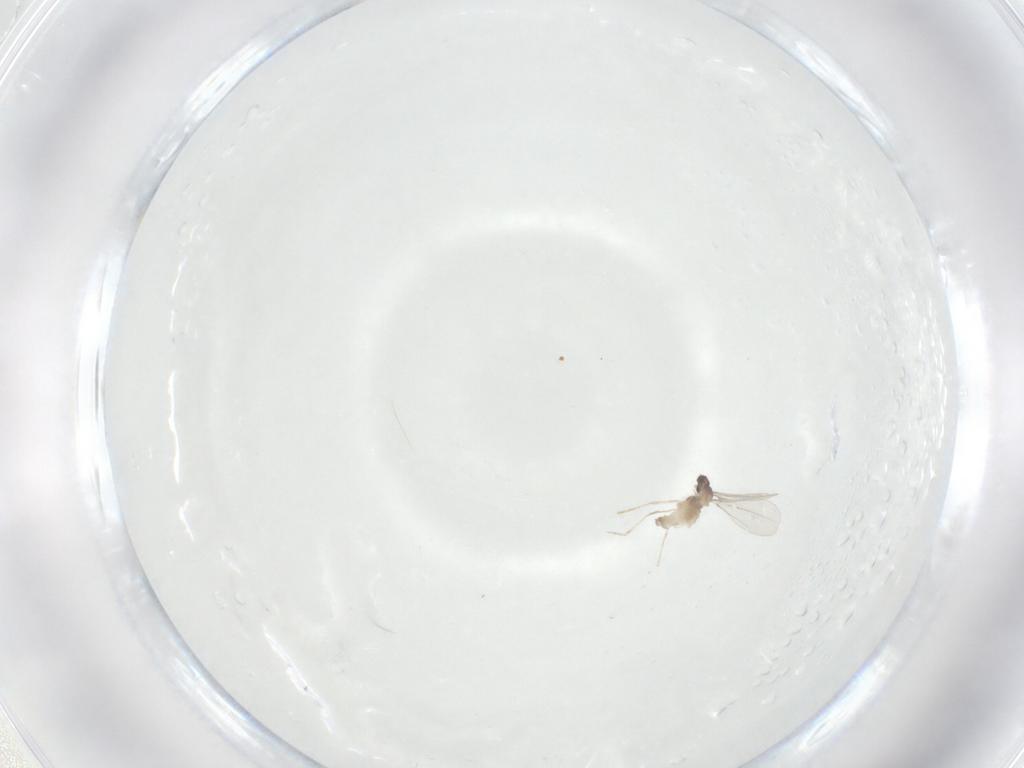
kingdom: Animalia
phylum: Arthropoda
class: Insecta
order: Diptera
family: Cecidomyiidae
